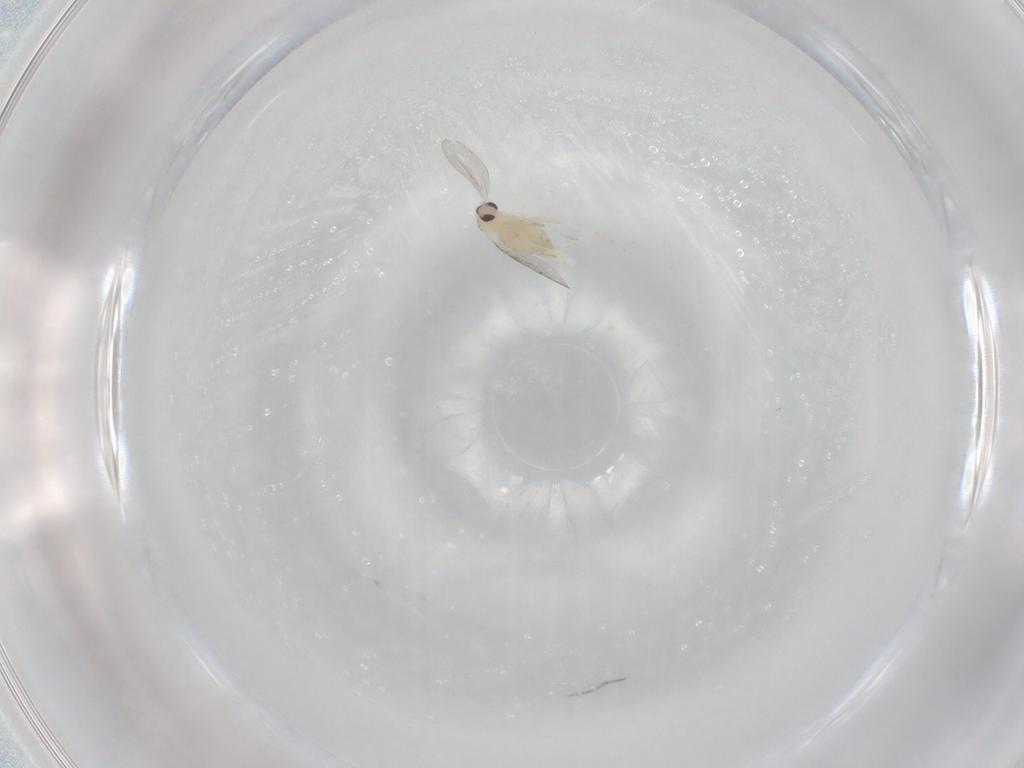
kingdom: Animalia
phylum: Arthropoda
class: Insecta
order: Diptera
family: Cecidomyiidae
